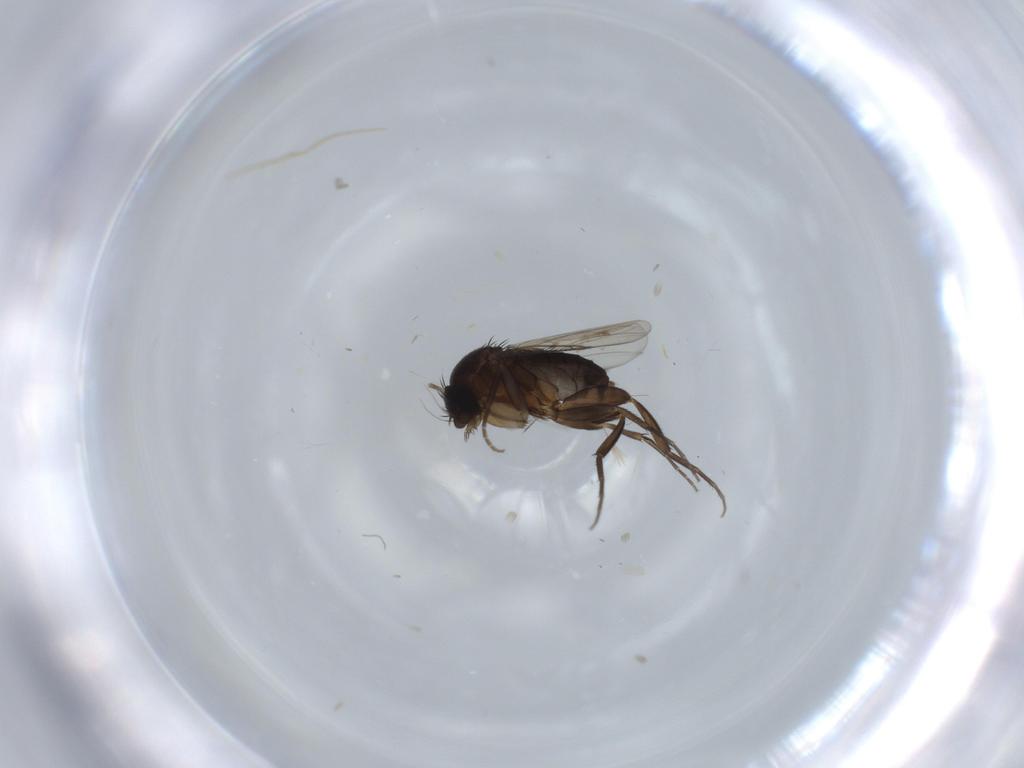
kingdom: Animalia
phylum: Arthropoda
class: Insecta
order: Diptera
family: Phoridae
